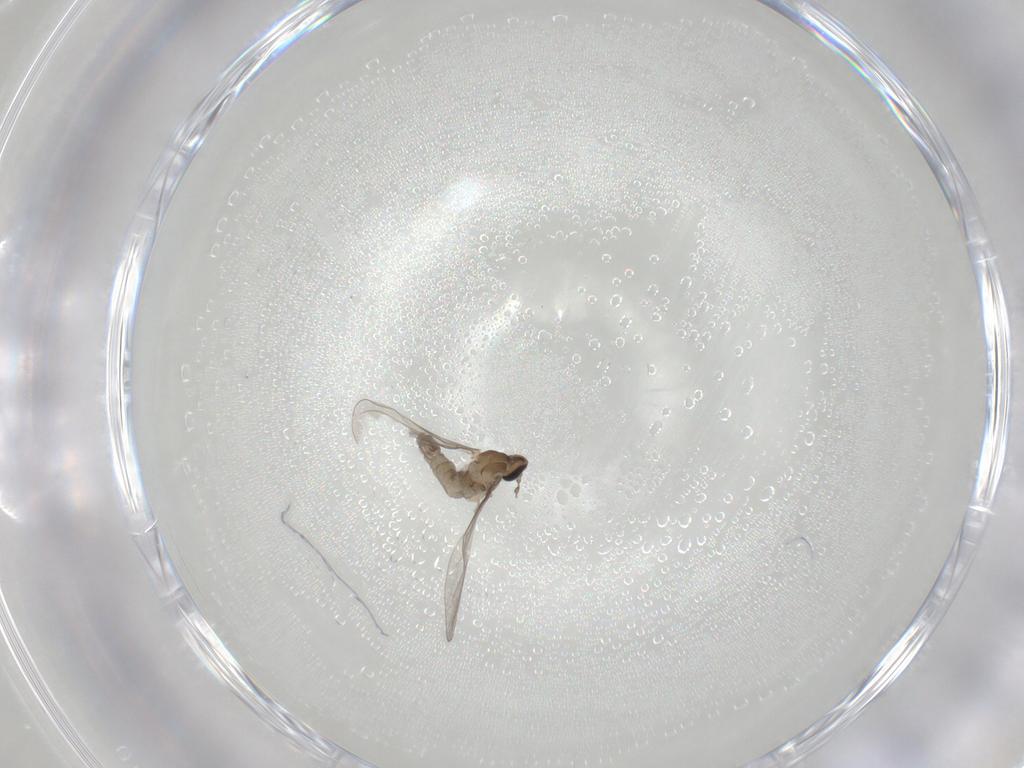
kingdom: Animalia
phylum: Arthropoda
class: Insecta
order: Diptera
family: Cecidomyiidae
